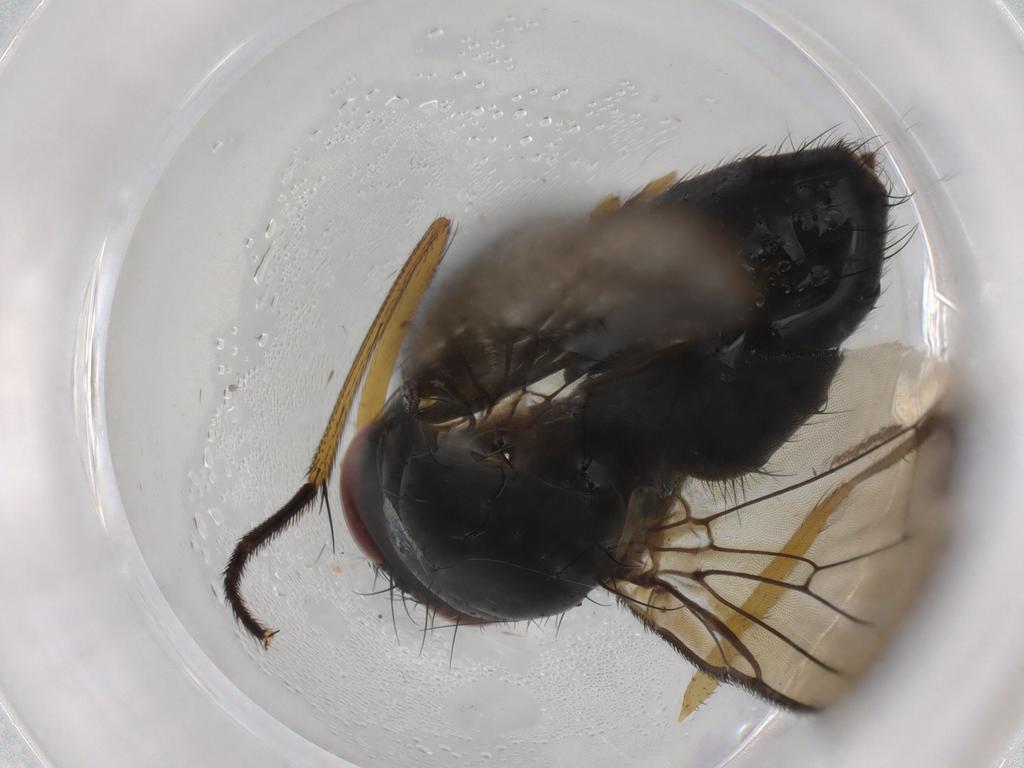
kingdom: Animalia
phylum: Arthropoda
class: Insecta
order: Diptera
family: Muscidae
